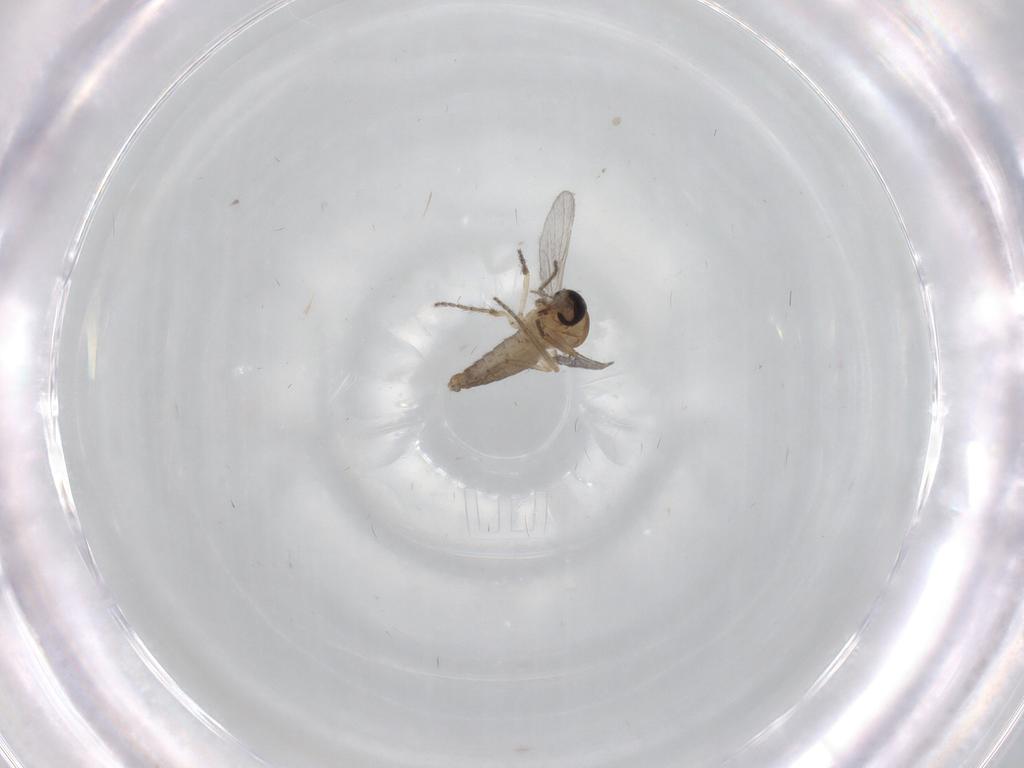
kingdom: Animalia
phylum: Arthropoda
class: Insecta
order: Diptera
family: Ceratopogonidae
